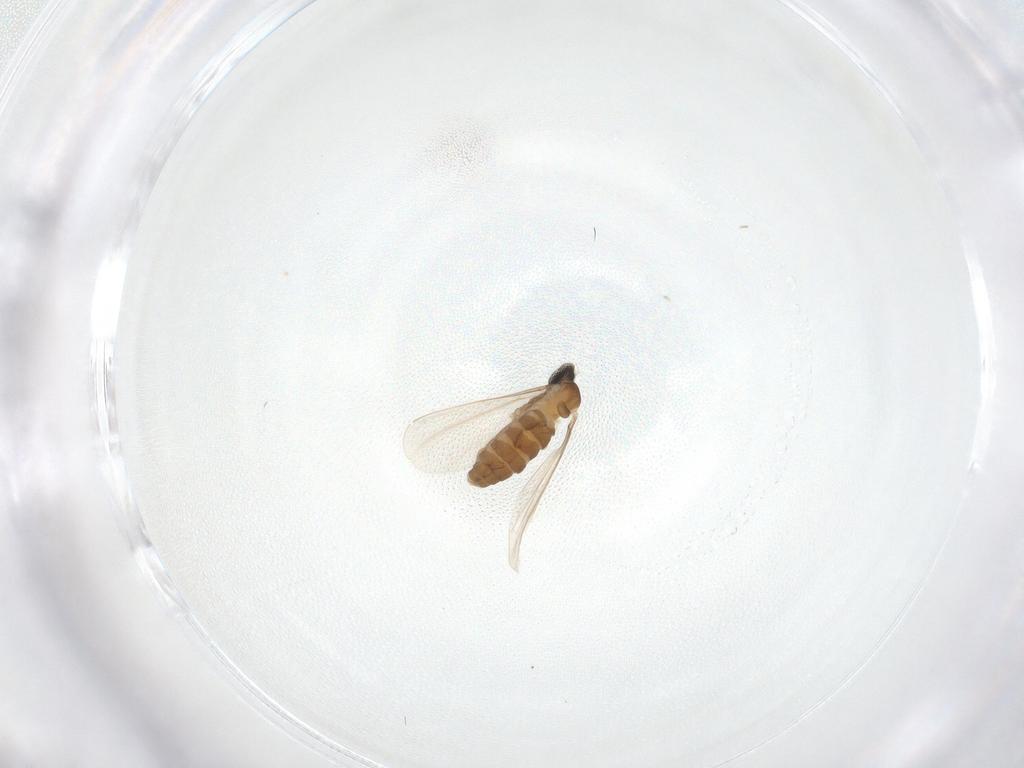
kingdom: Animalia
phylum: Arthropoda
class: Insecta
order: Diptera
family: Cecidomyiidae
